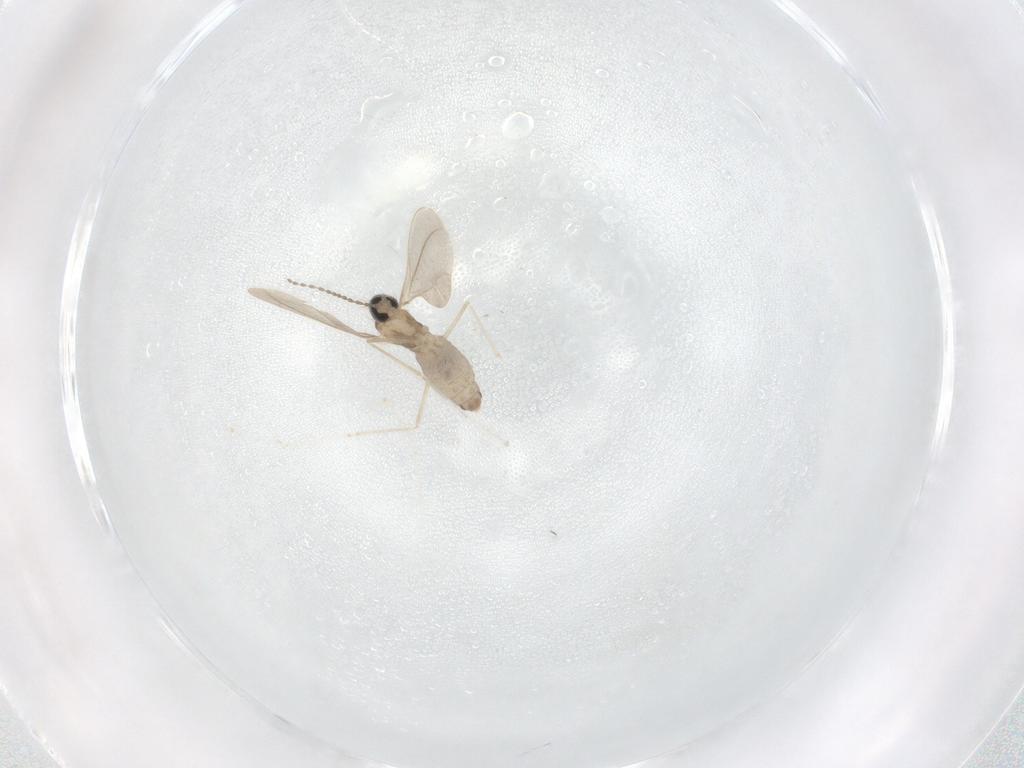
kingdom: Animalia
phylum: Arthropoda
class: Insecta
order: Diptera
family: Cecidomyiidae
